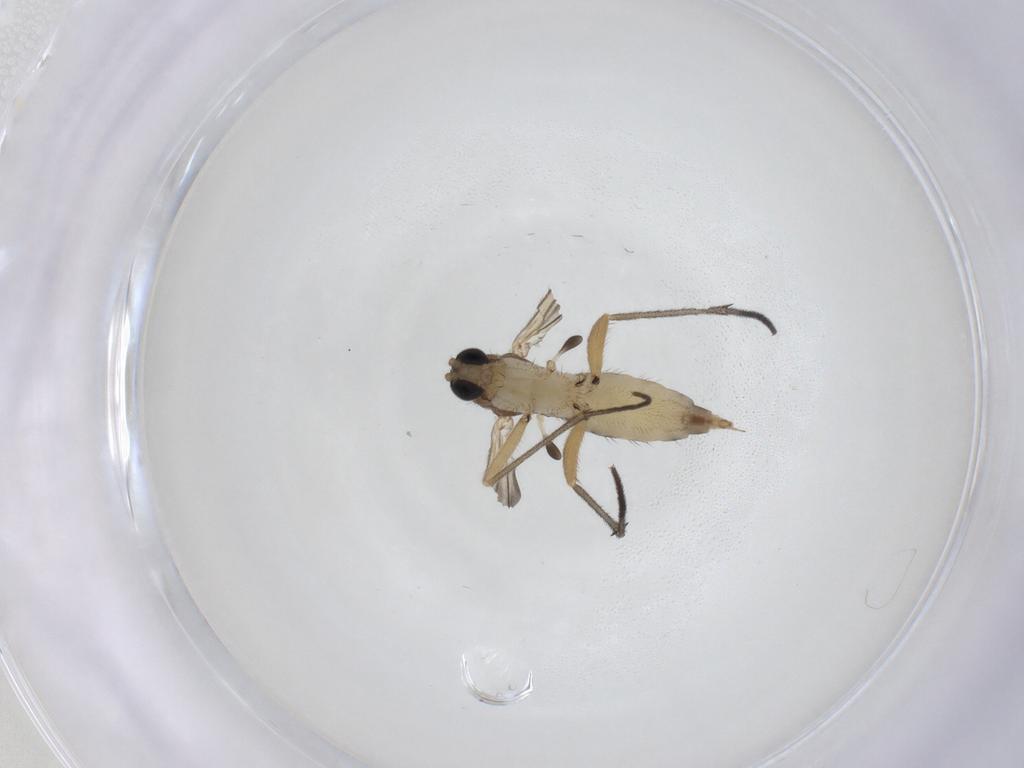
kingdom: Animalia
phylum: Arthropoda
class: Insecta
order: Diptera
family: Sciaridae
